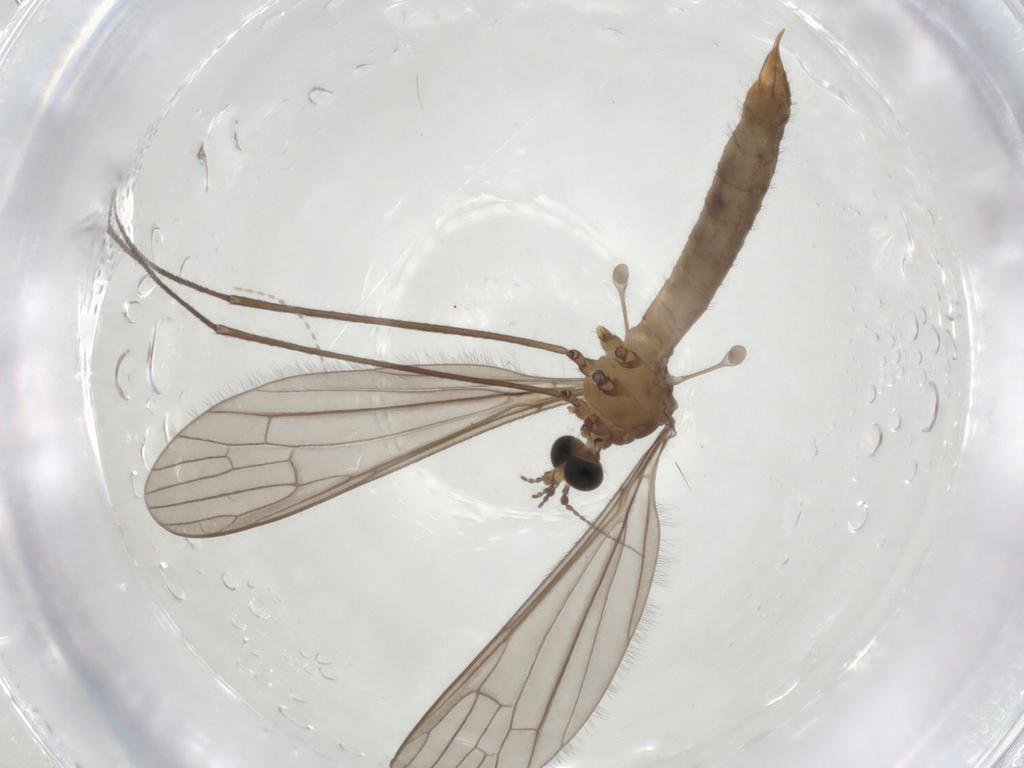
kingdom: Animalia
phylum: Arthropoda
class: Insecta
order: Diptera
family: Limoniidae
